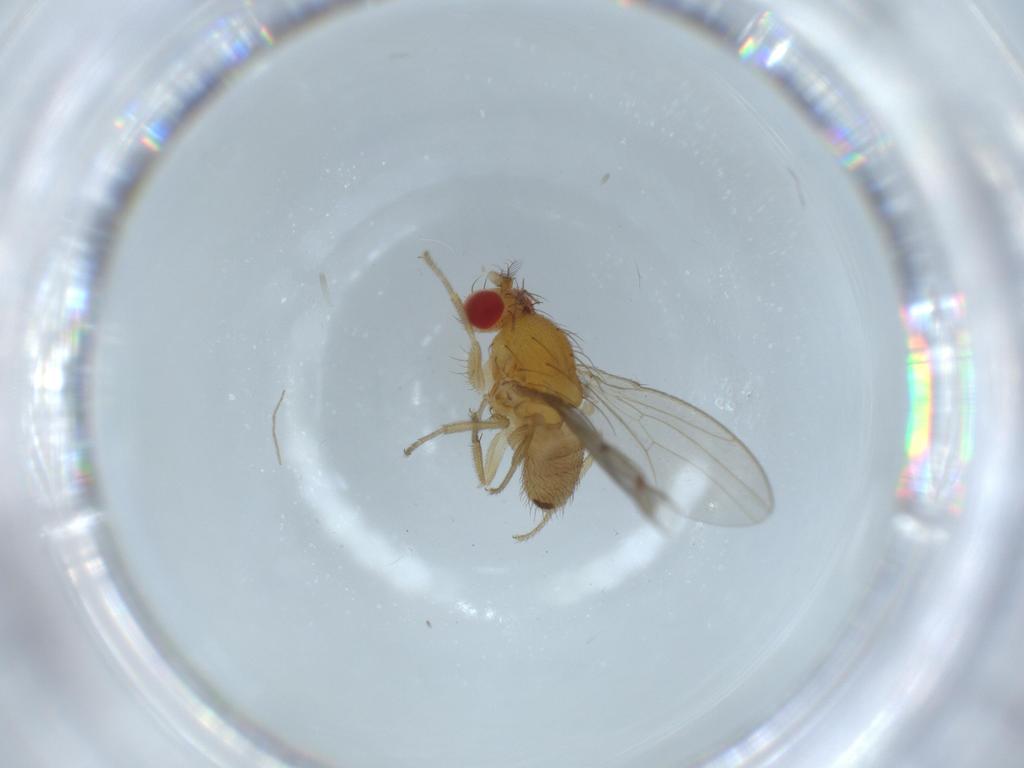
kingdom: Animalia
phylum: Arthropoda
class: Insecta
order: Diptera
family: Drosophilidae
